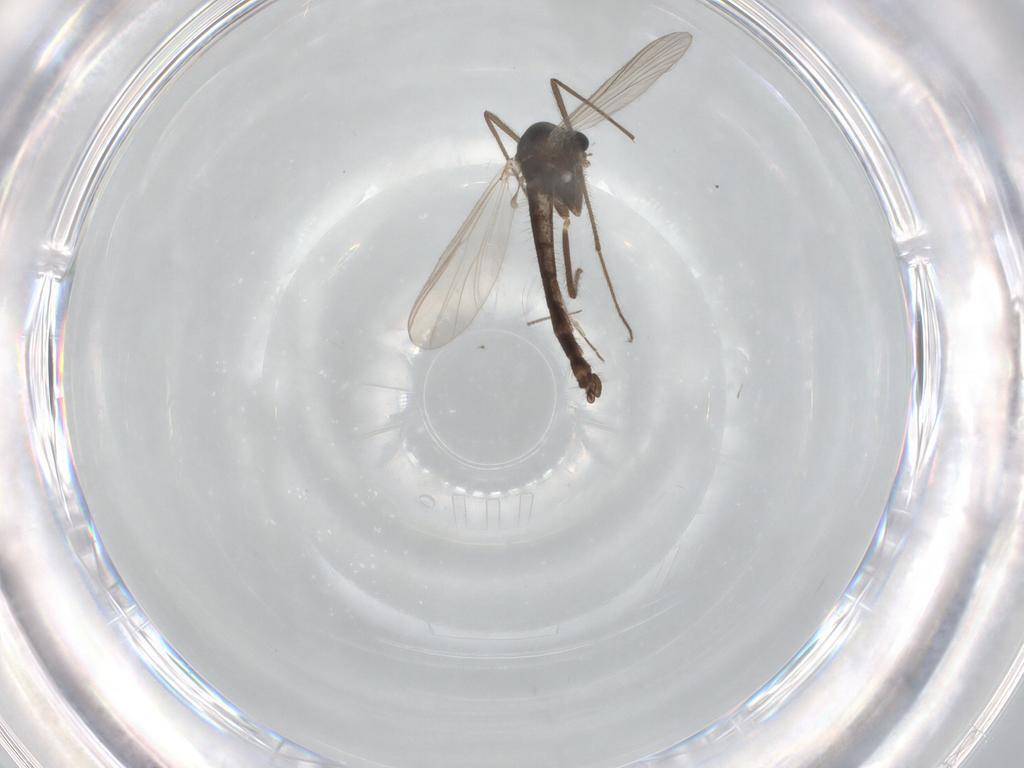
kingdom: Animalia
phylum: Arthropoda
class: Insecta
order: Diptera
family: Chironomidae
